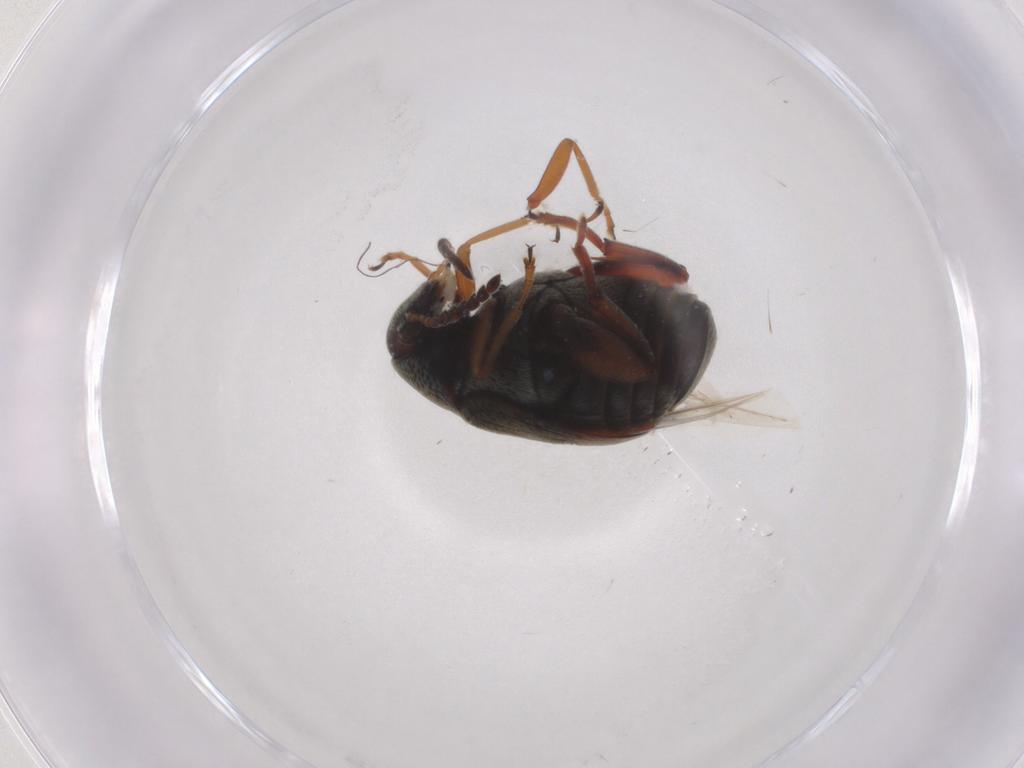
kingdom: Animalia
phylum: Arthropoda
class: Insecta
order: Coleoptera
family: Chrysomelidae
